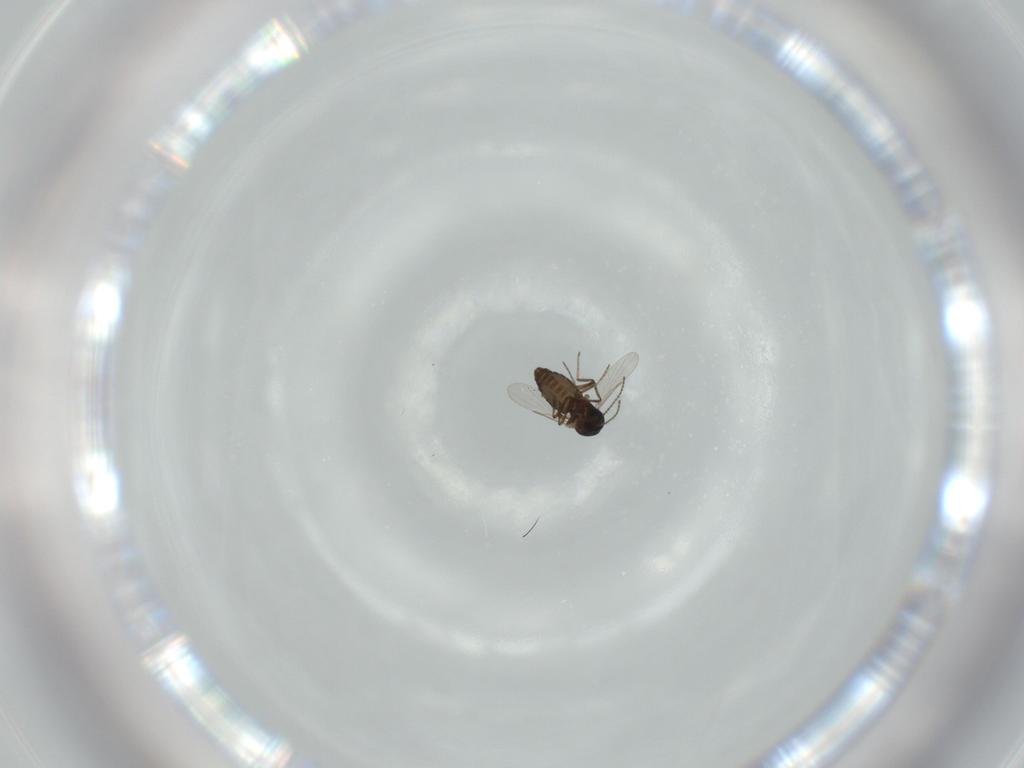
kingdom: Animalia
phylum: Arthropoda
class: Insecta
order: Diptera
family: Ceratopogonidae
